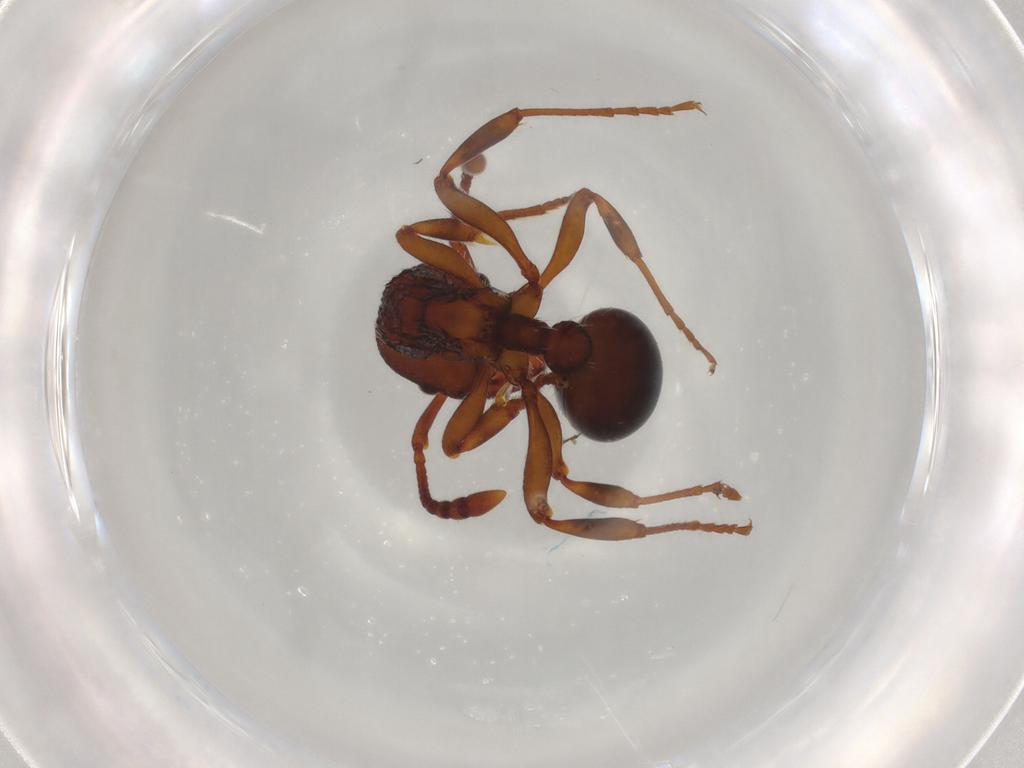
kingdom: Animalia
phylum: Arthropoda
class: Insecta
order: Hymenoptera
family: Formicidae
